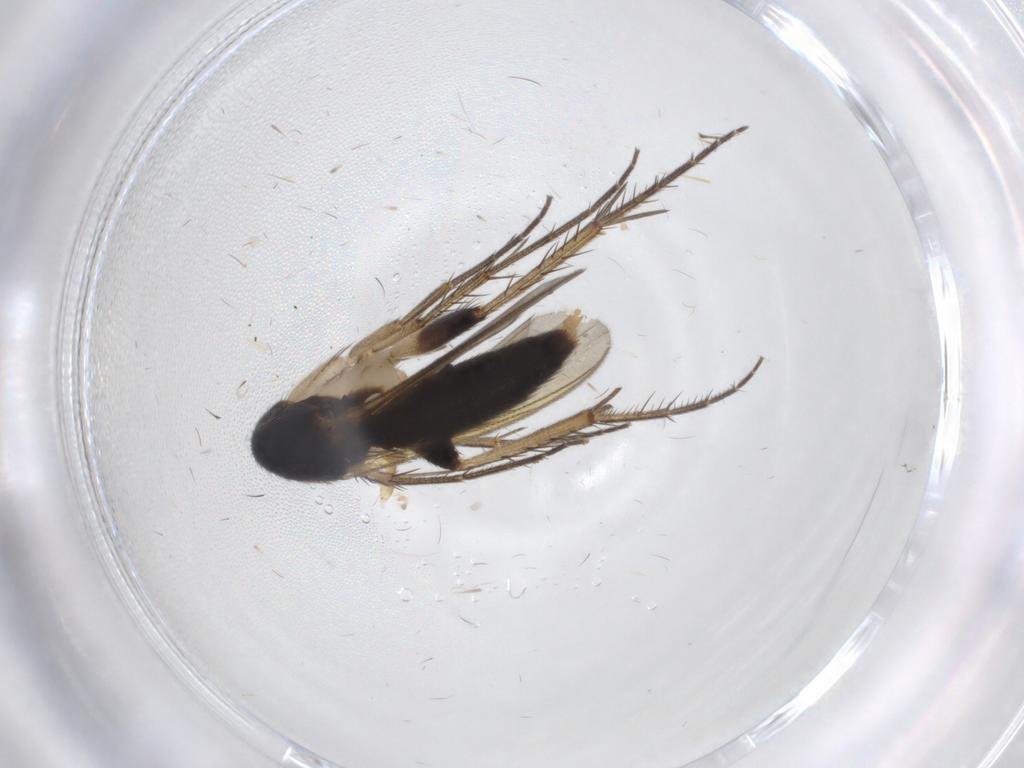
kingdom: Animalia
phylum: Arthropoda
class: Insecta
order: Diptera
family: Hybotidae
